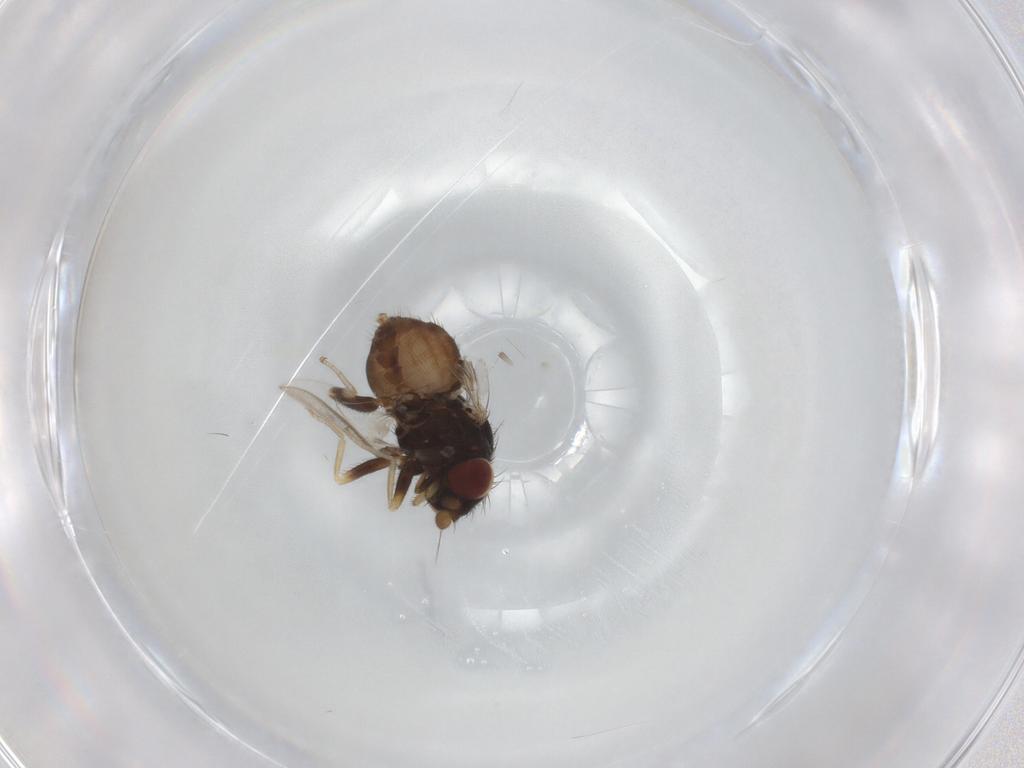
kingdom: Animalia
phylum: Arthropoda
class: Insecta
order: Diptera
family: Milichiidae
